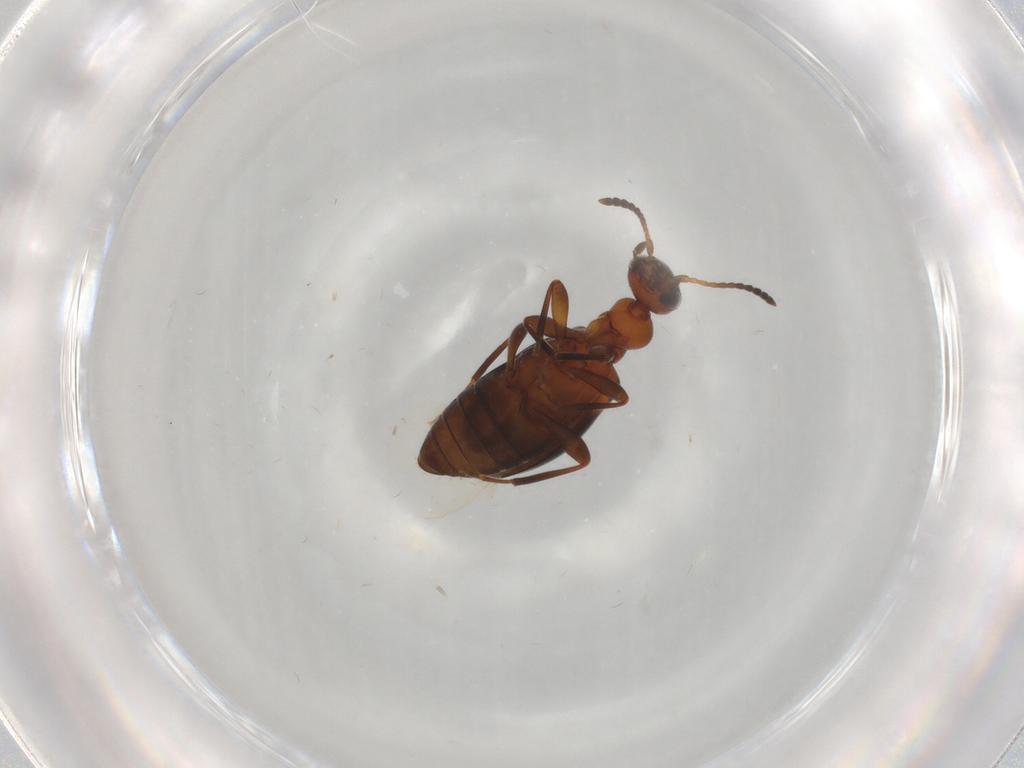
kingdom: Animalia
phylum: Arthropoda
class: Insecta
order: Coleoptera
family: Anthicidae
